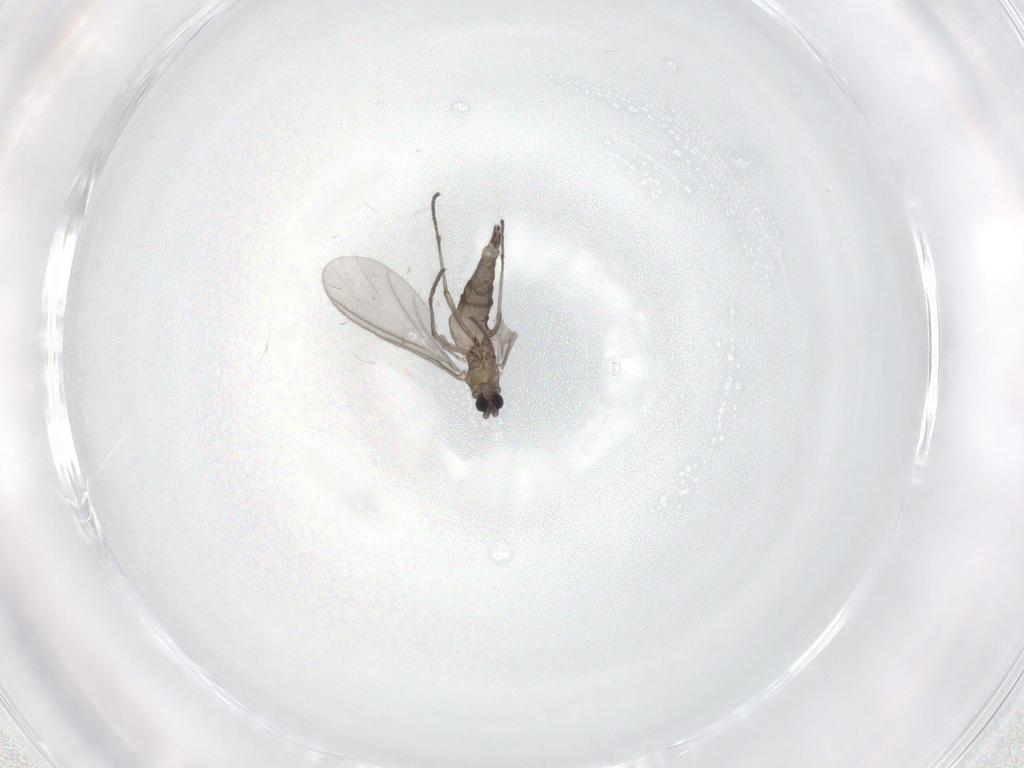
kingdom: Animalia
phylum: Arthropoda
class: Insecta
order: Diptera
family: Sciaridae
